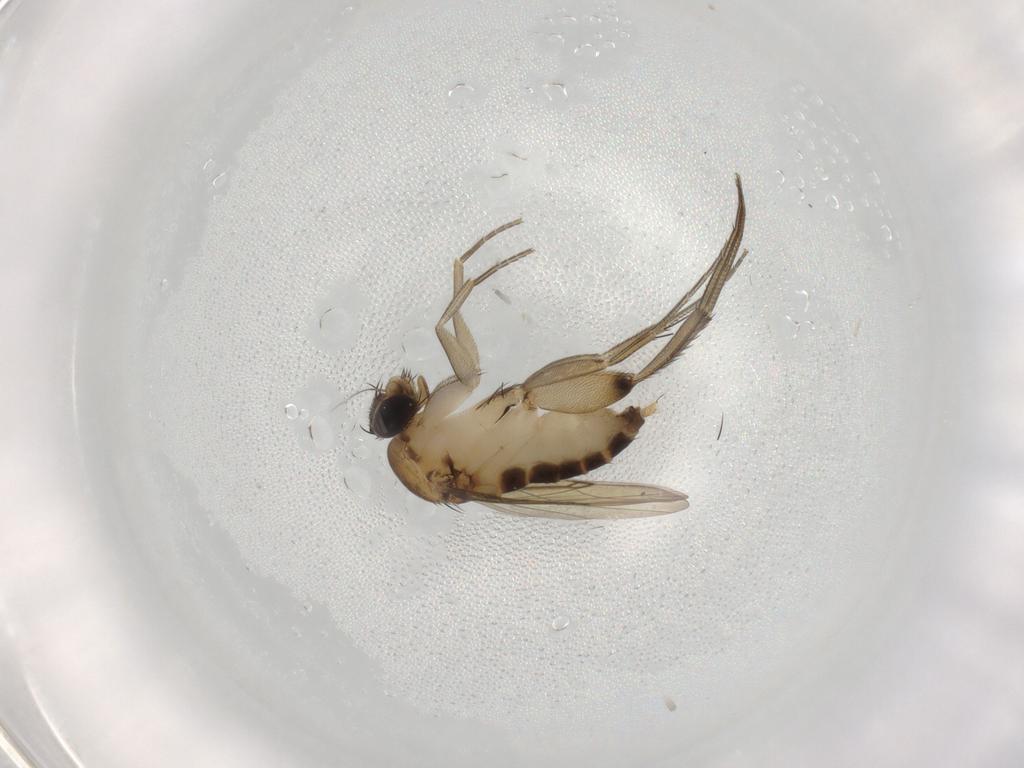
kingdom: Animalia
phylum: Arthropoda
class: Insecta
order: Diptera
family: Phoridae
